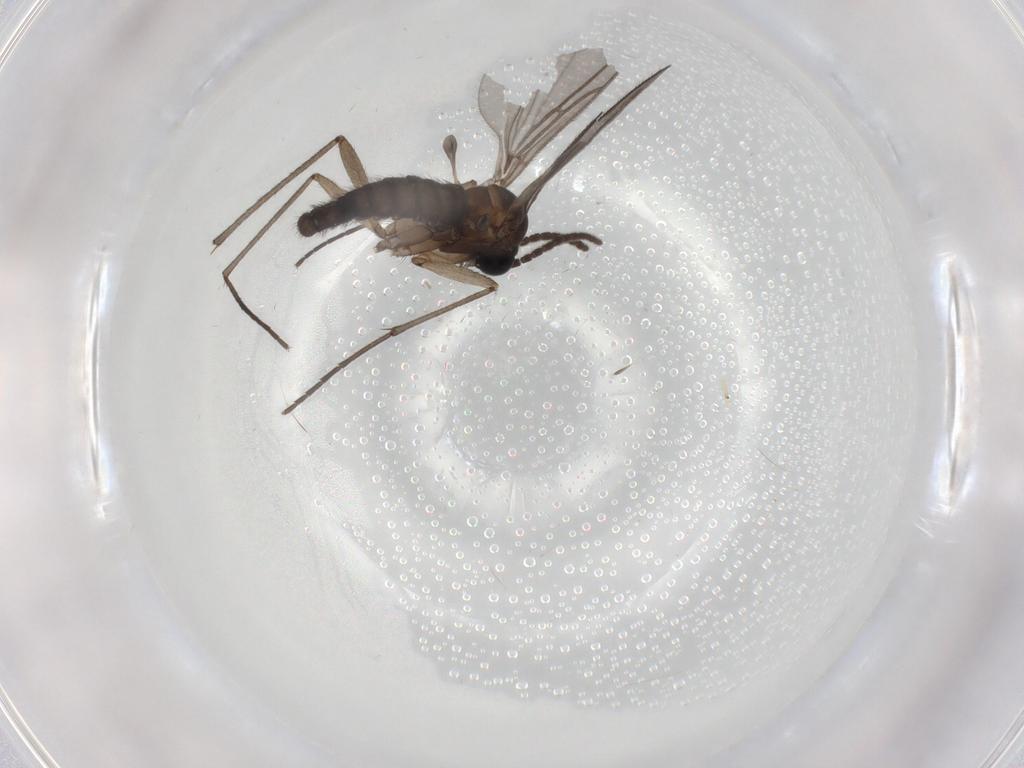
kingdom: Animalia
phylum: Arthropoda
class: Insecta
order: Diptera
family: Sciaridae
